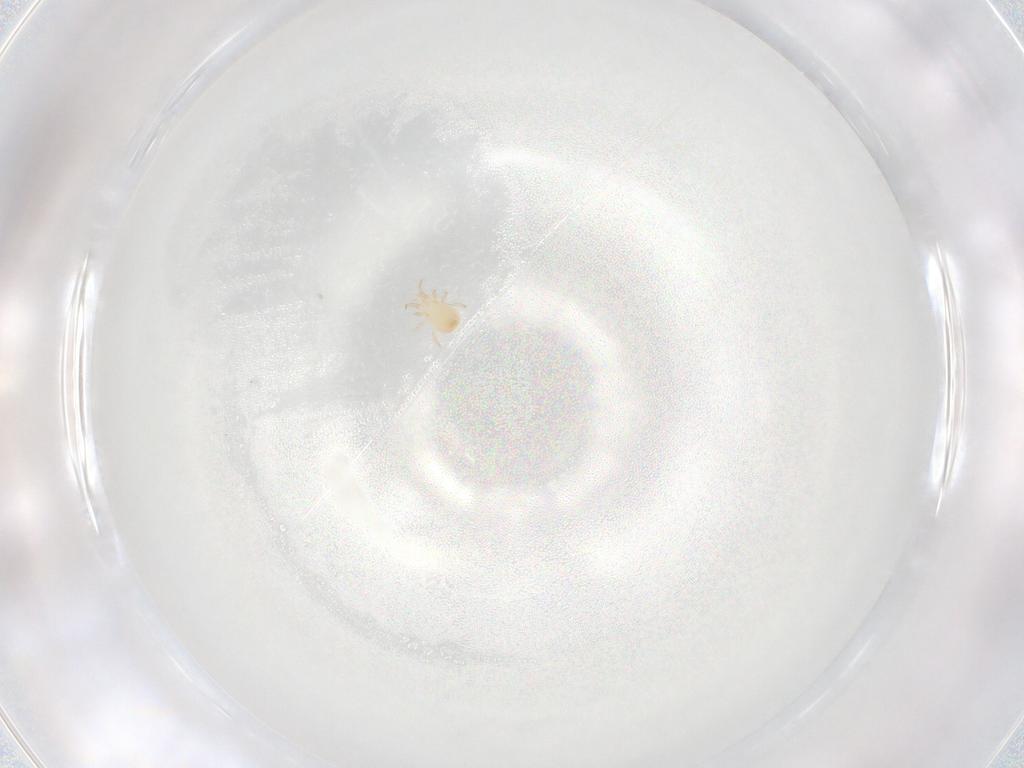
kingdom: Animalia
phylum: Arthropoda
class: Arachnida
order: Mesostigmata
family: Phytoseiidae
